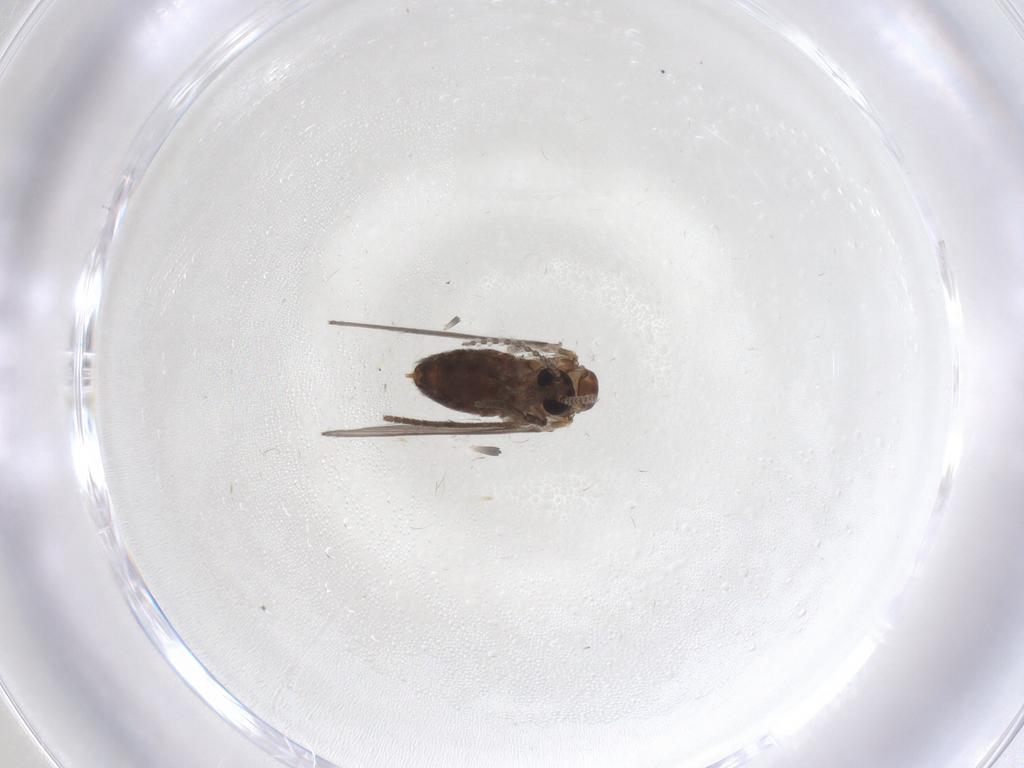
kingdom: Animalia
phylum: Arthropoda
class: Insecta
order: Diptera
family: Psychodidae
